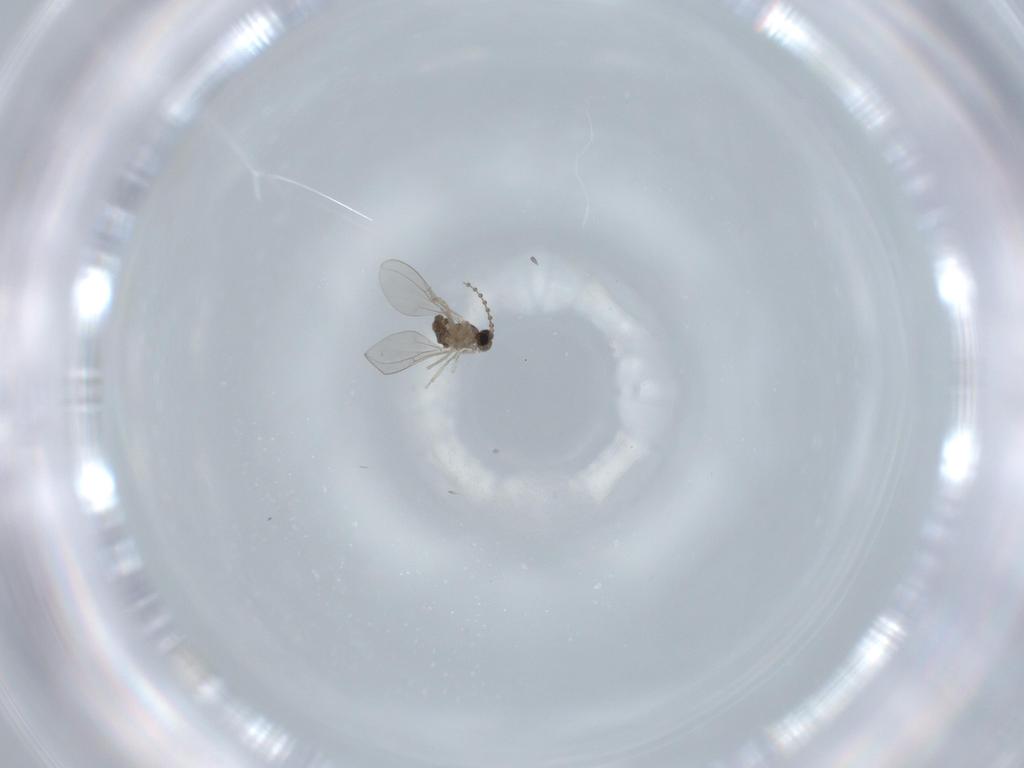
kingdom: Animalia
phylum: Arthropoda
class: Insecta
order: Diptera
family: Cecidomyiidae
